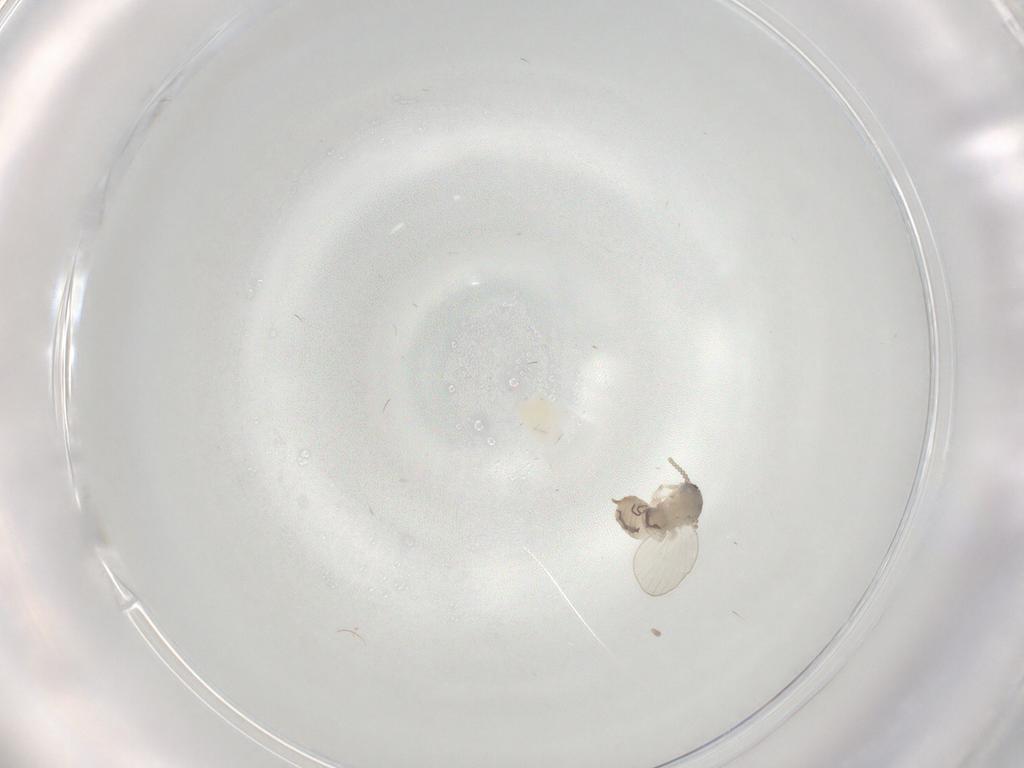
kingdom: Animalia
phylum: Arthropoda
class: Insecta
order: Diptera
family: Psychodidae
